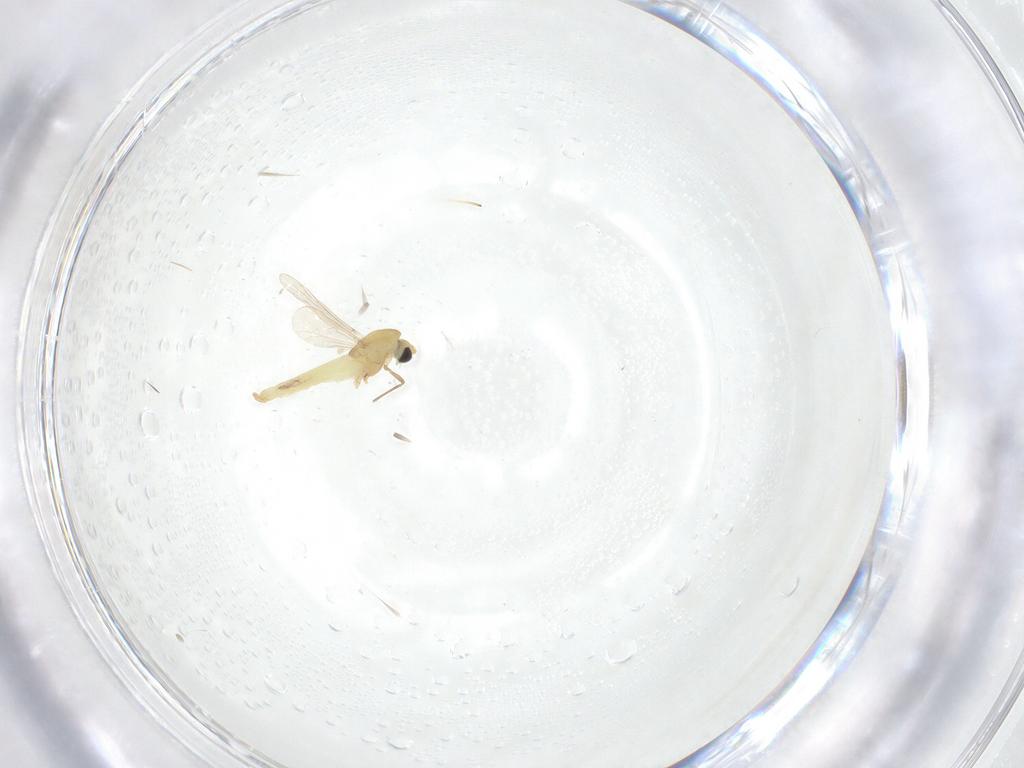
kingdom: Animalia
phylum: Arthropoda
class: Insecta
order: Diptera
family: Chironomidae
